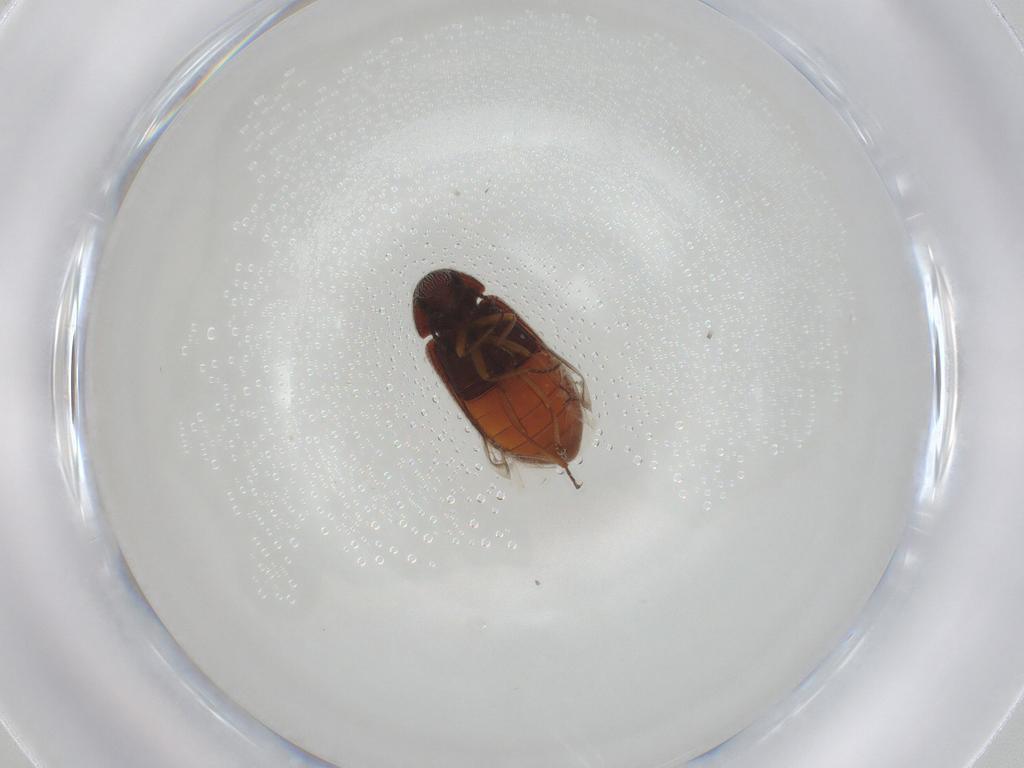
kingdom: Animalia
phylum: Arthropoda
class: Insecta
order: Coleoptera
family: Rhadalidae
